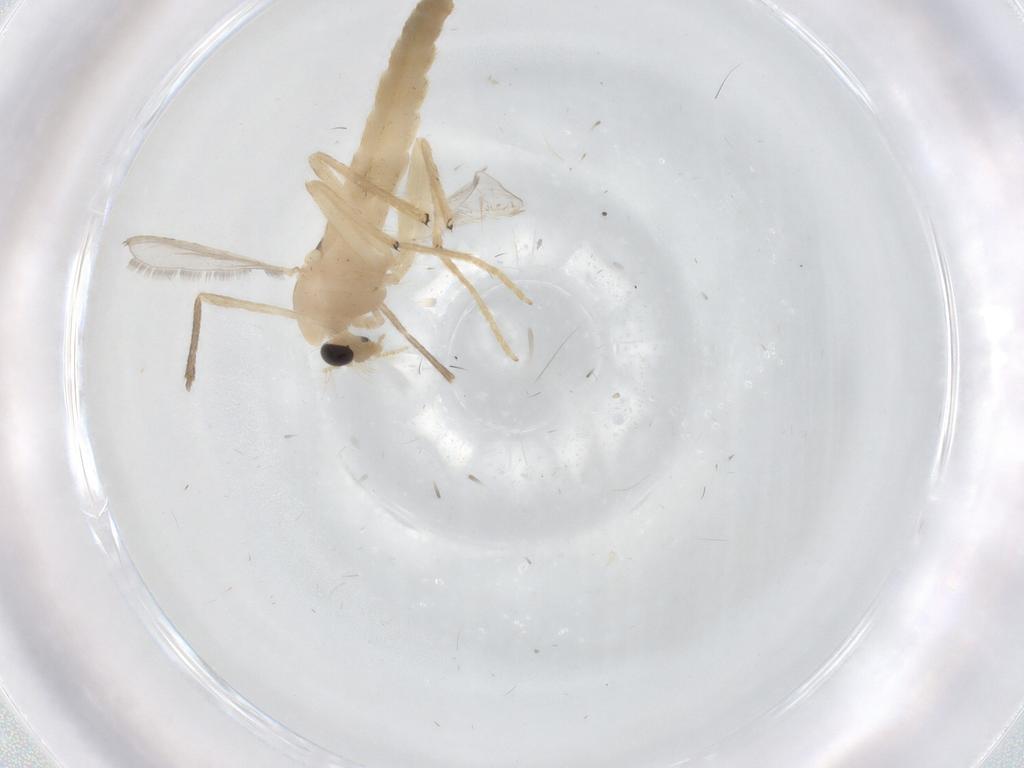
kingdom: Animalia
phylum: Arthropoda
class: Insecta
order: Diptera
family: Chironomidae
